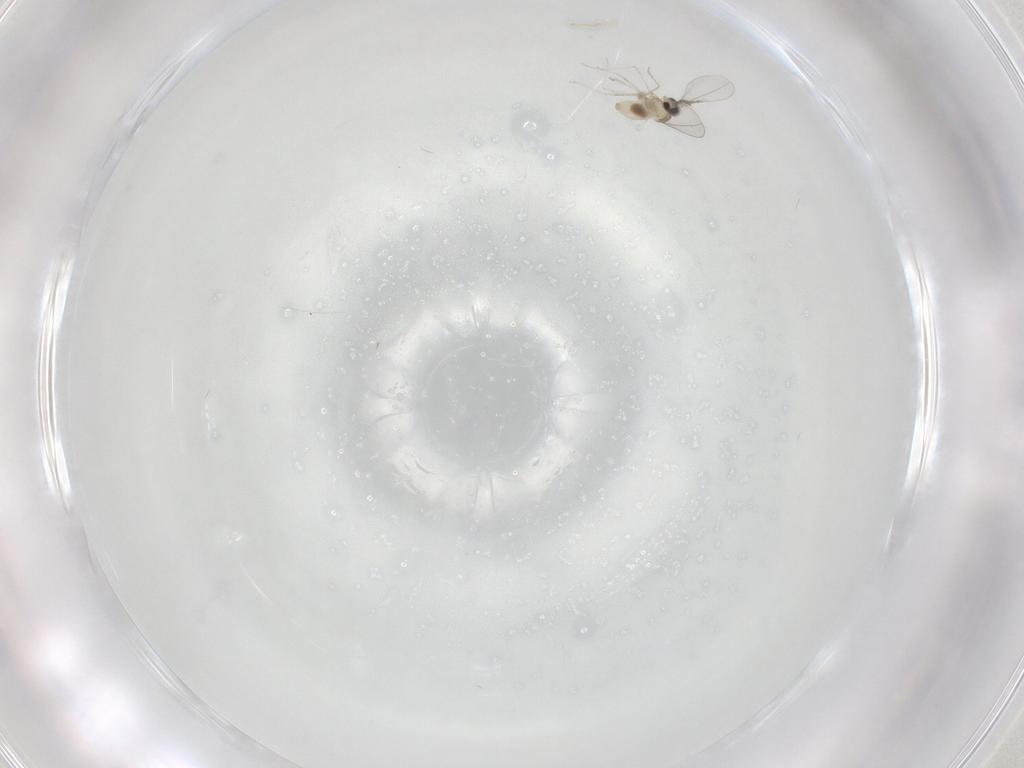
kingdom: Animalia
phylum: Arthropoda
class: Insecta
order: Diptera
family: Cecidomyiidae
